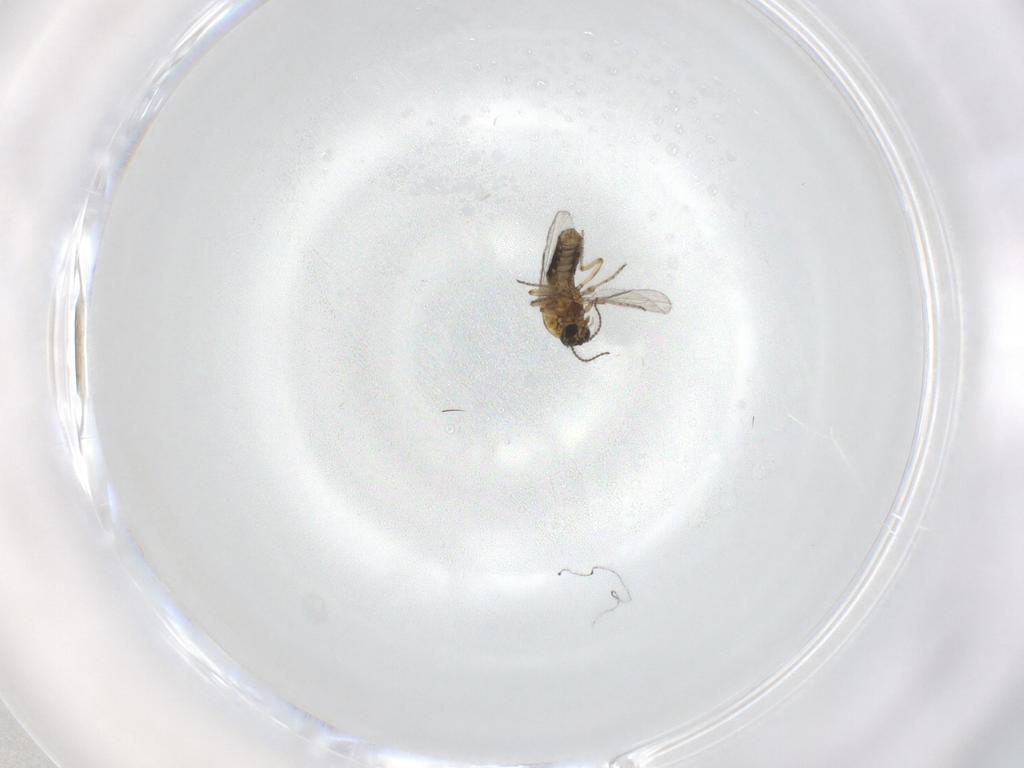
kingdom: Animalia
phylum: Arthropoda
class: Insecta
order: Diptera
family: Ceratopogonidae
